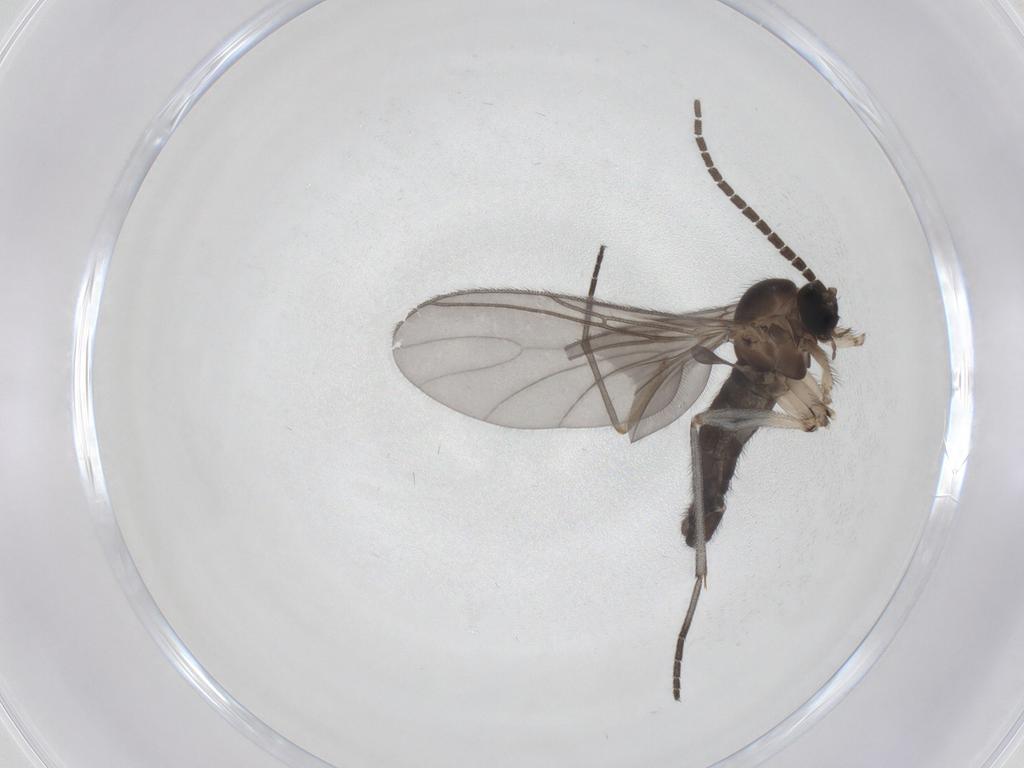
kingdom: Animalia
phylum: Arthropoda
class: Insecta
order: Diptera
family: Sciaridae
